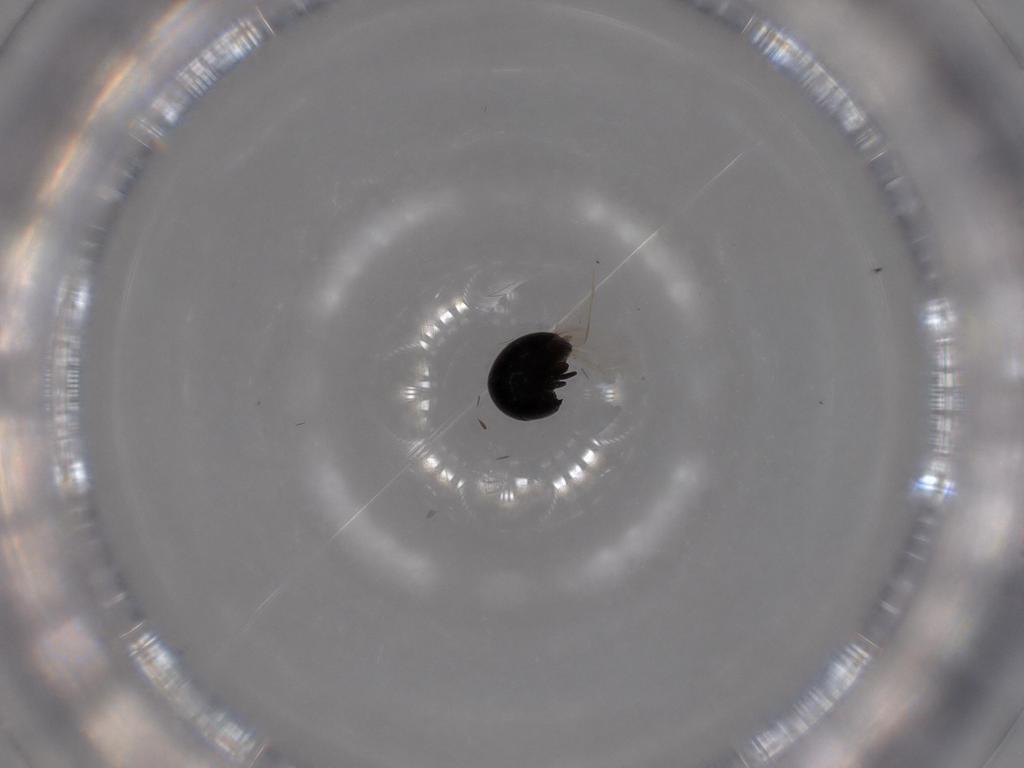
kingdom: Animalia
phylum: Arthropoda
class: Insecta
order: Coleoptera
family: Cybocephalidae
